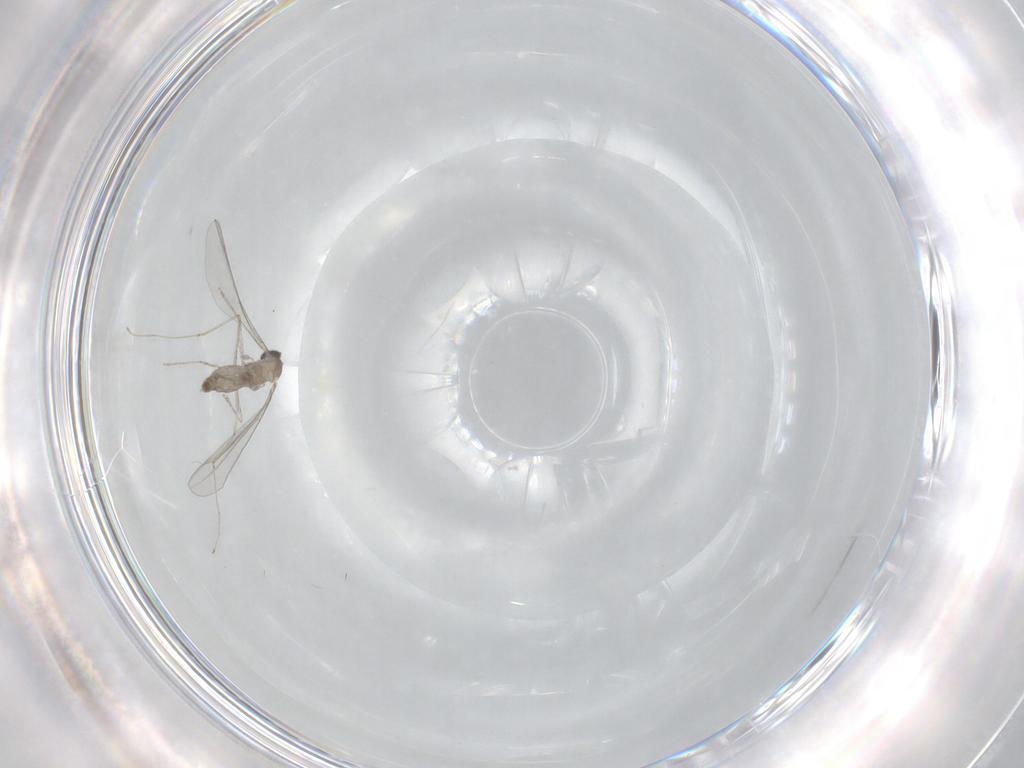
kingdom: Animalia
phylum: Arthropoda
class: Insecta
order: Diptera
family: Cecidomyiidae
